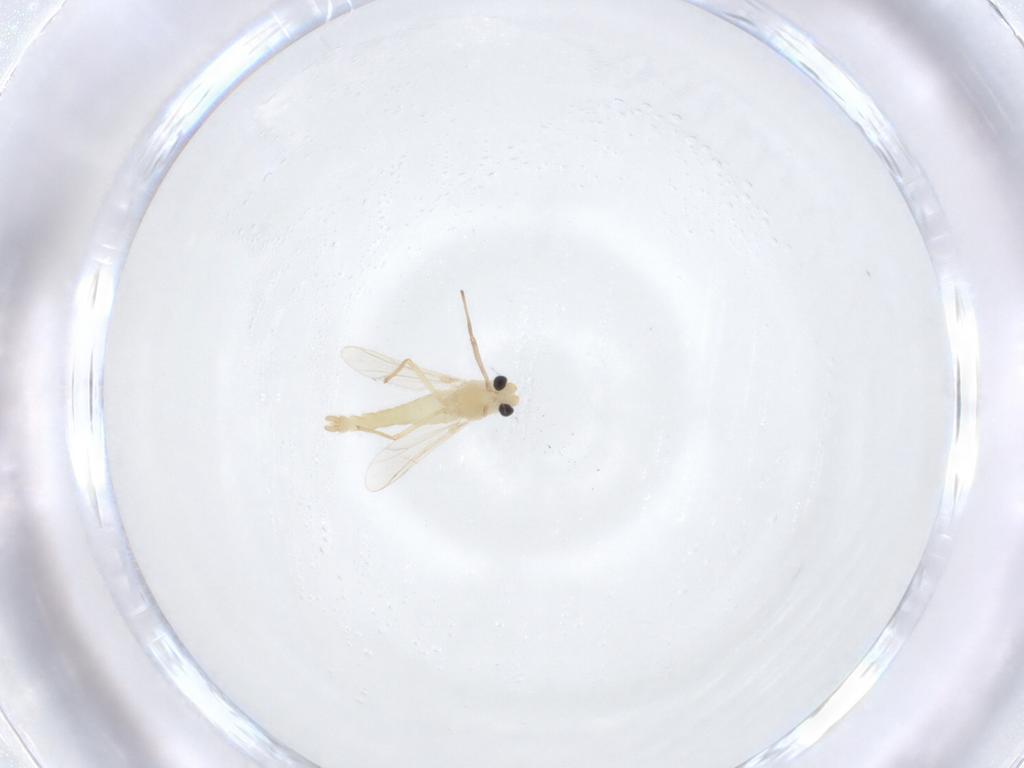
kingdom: Animalia
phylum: Arthropoda
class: Insecta
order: Diptera
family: Chironomidae
